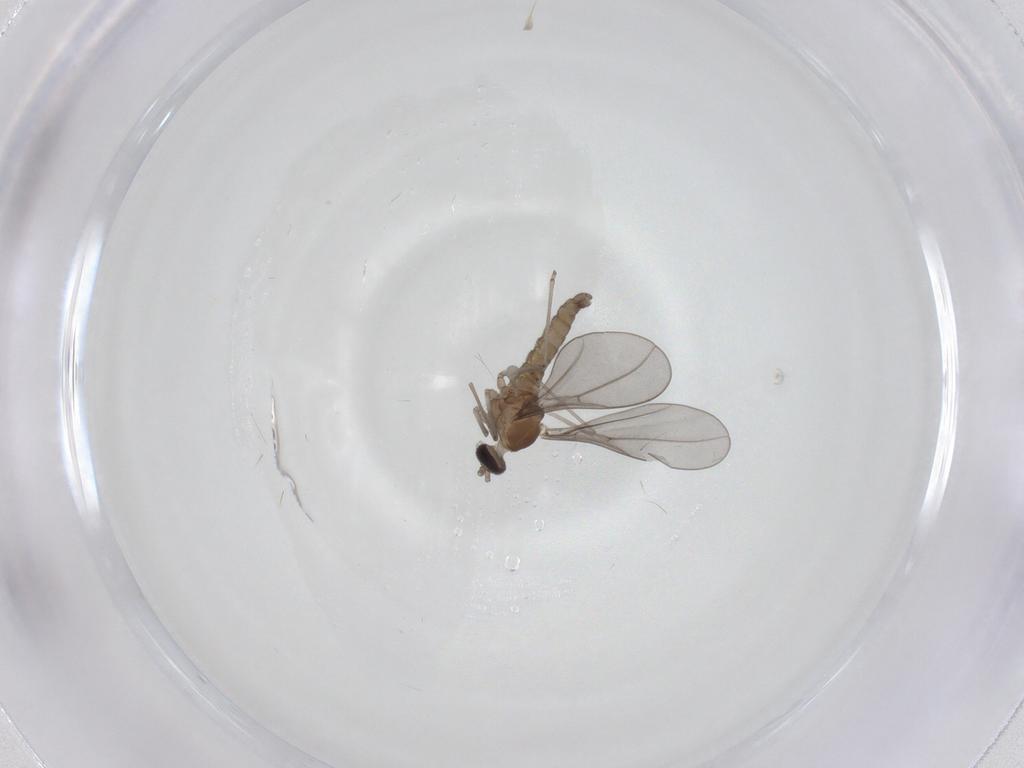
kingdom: Animalia
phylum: Arthropoda
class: Insecta
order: Diptera
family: Cecidomyiidae
